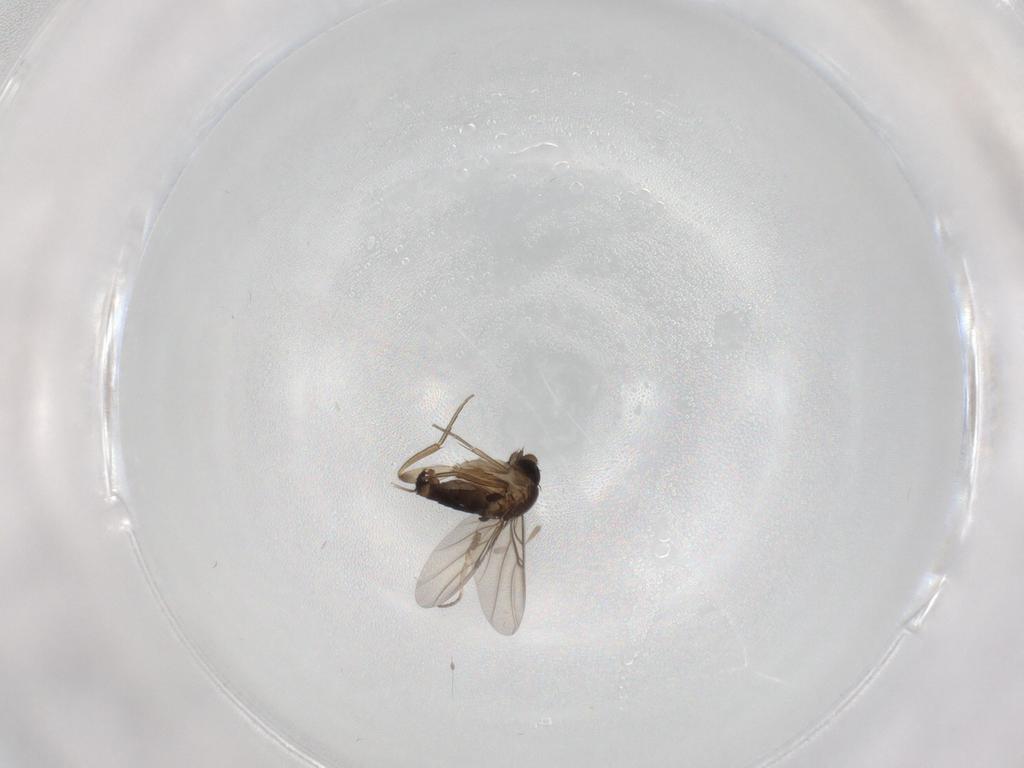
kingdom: Animalia
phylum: Arthropoda
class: Insecta
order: Diptera
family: Phoridae
